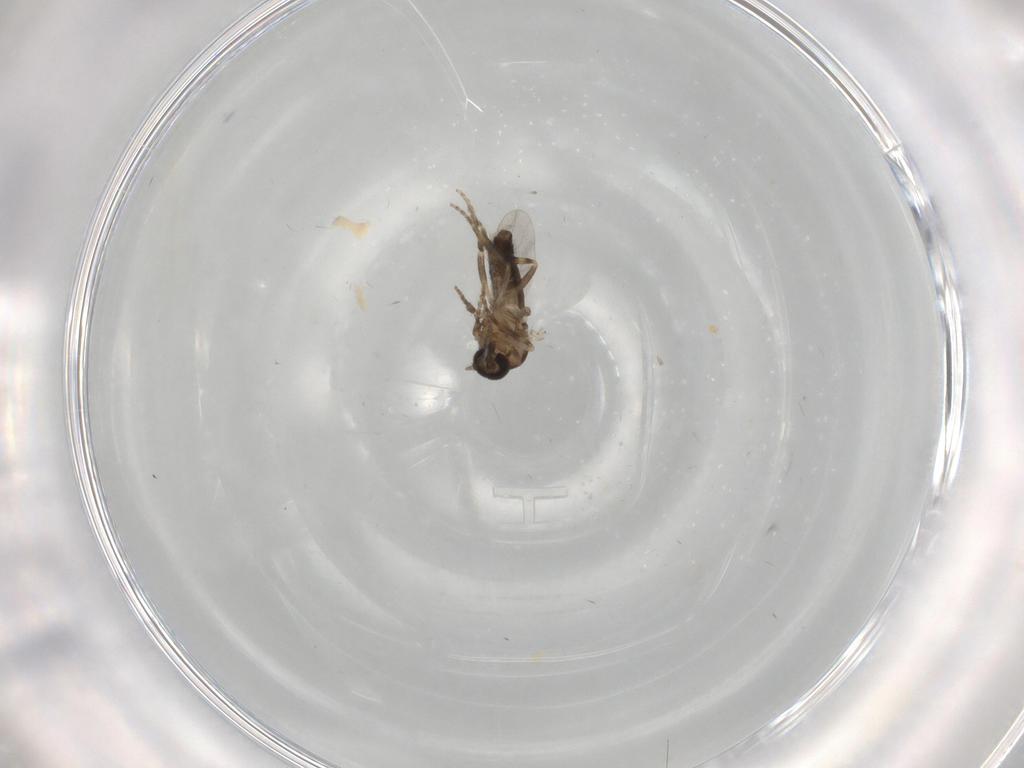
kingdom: Animalia
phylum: Arthropoda
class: Insecta
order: Diptera
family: Ceratopogonidae
